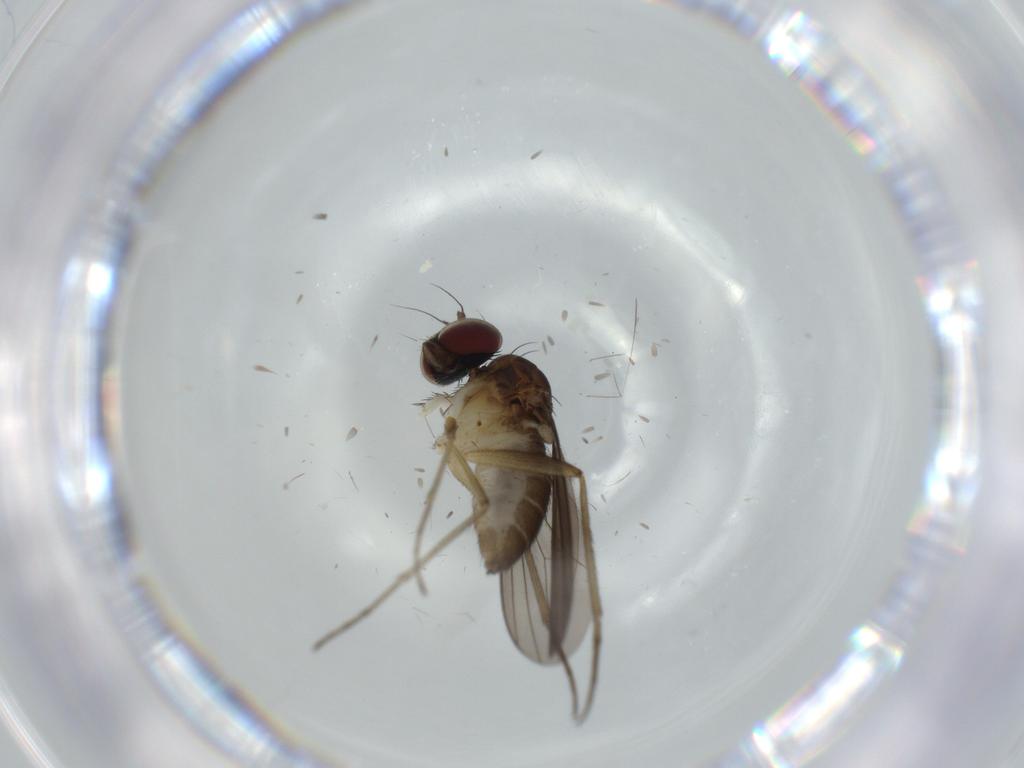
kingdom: Animalia
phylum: Arthropoda
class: Insecta
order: Diptera
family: Dolichopodidae
